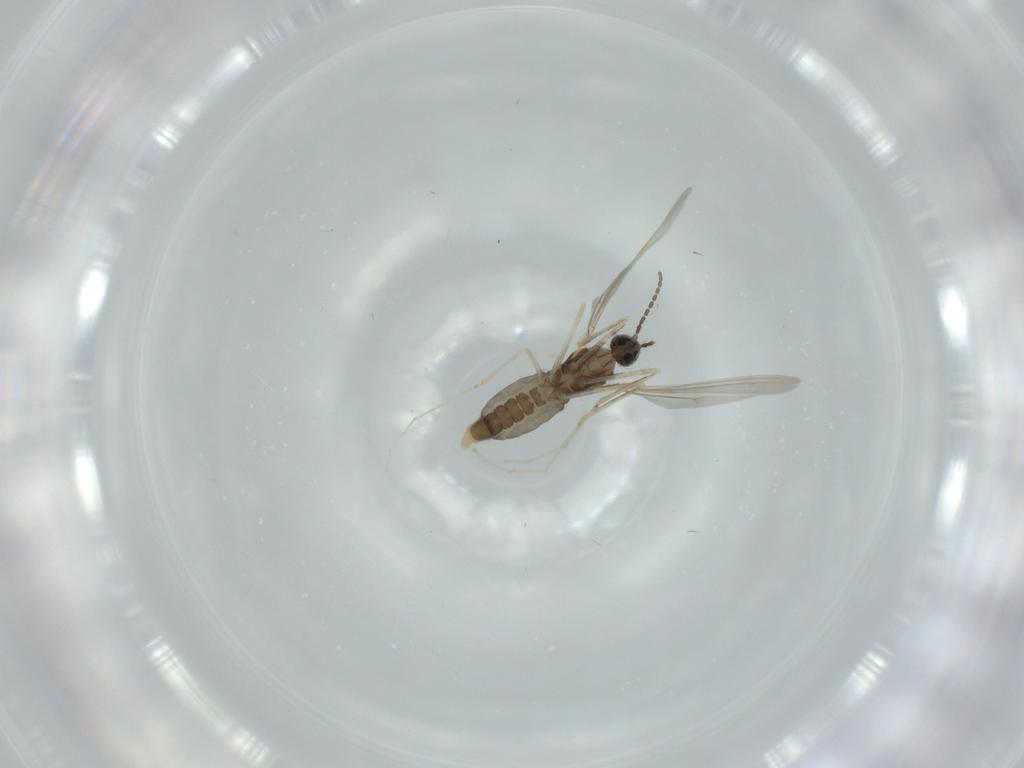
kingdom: Animalia
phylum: Arthropoda
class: Insecta
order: Diptera
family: Cecidomyiidae
